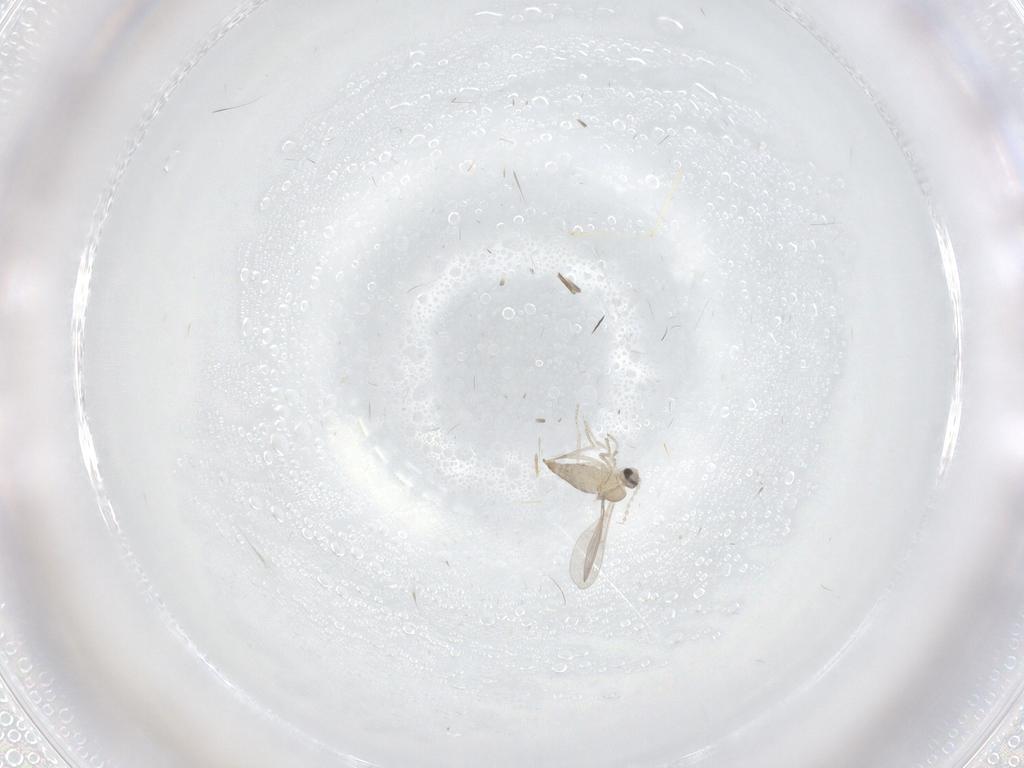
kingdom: Animalia
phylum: Arthropoda
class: Insecta
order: Diptera
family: Cecidomyiidae
